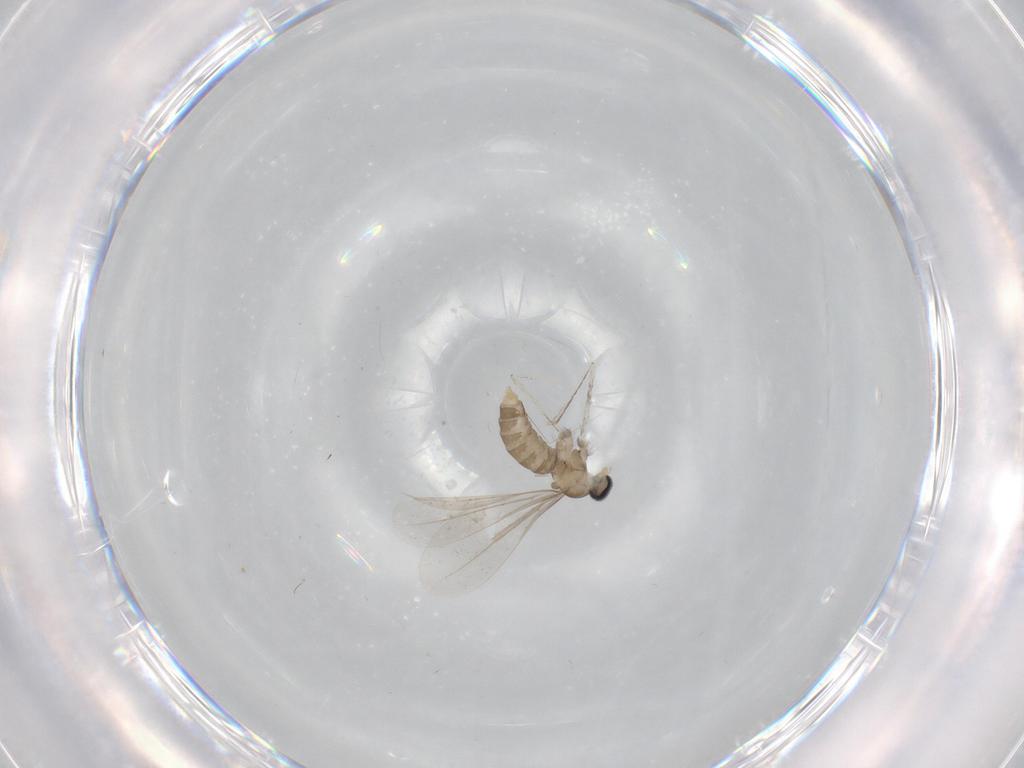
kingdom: Animalia
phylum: Arthropoda
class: Insecta
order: Diptera
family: Cecidomyiidae
